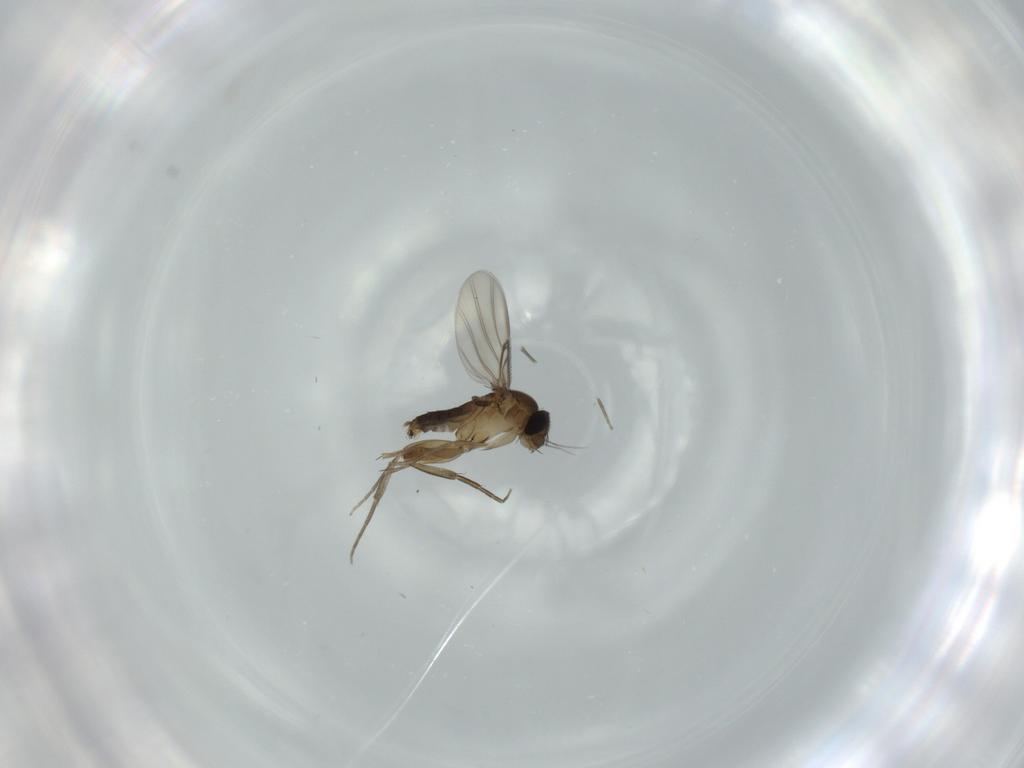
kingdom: Animalia
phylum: Arthropoda
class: Insecta
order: Diptera
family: Phoridae
